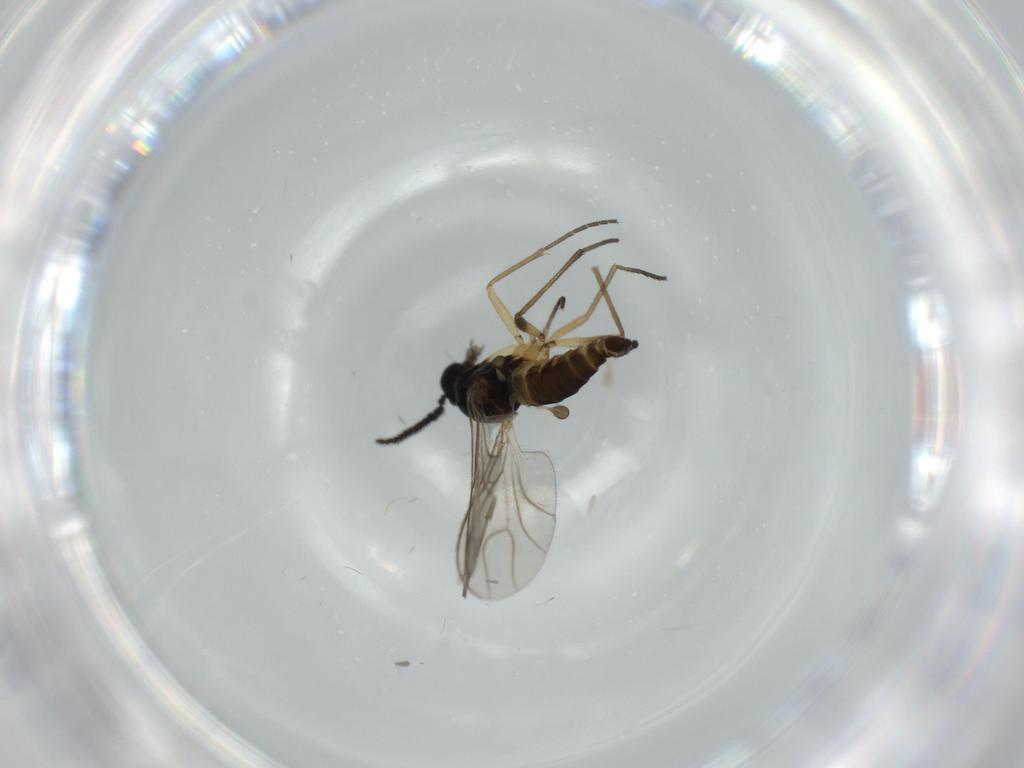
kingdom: Animalia
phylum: Arthropoda
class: Insecta
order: Diptera
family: Sciaridae
